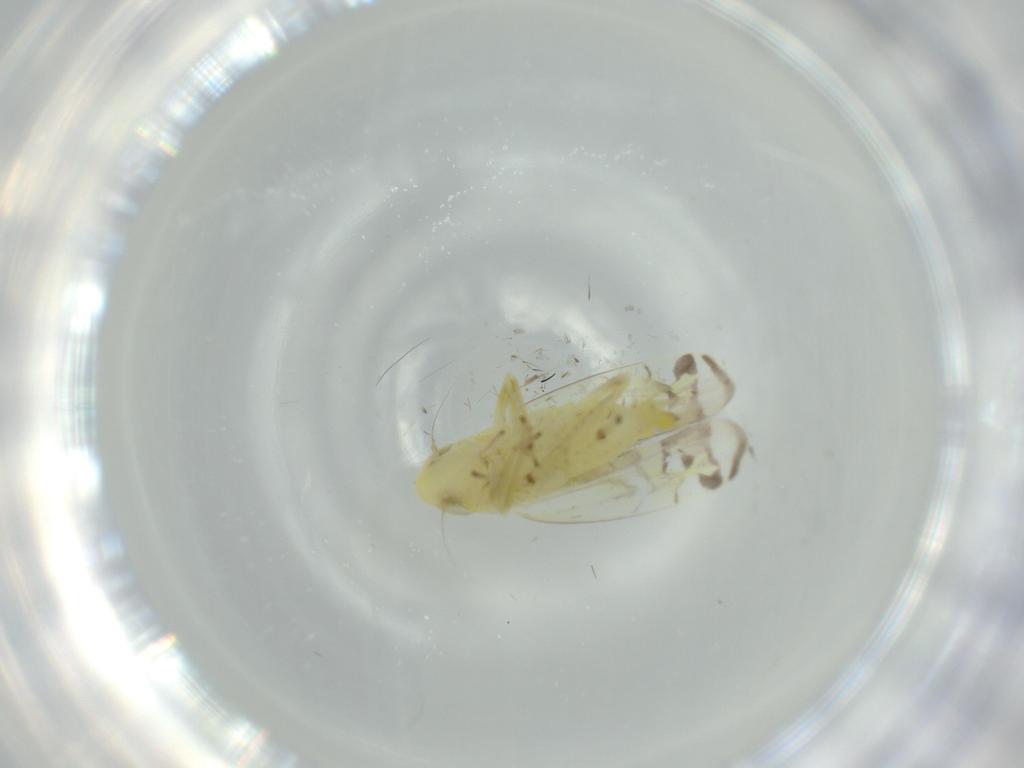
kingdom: Animalia
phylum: Arthropoda
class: Insecta
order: Hemiptera
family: Cicadellidae
